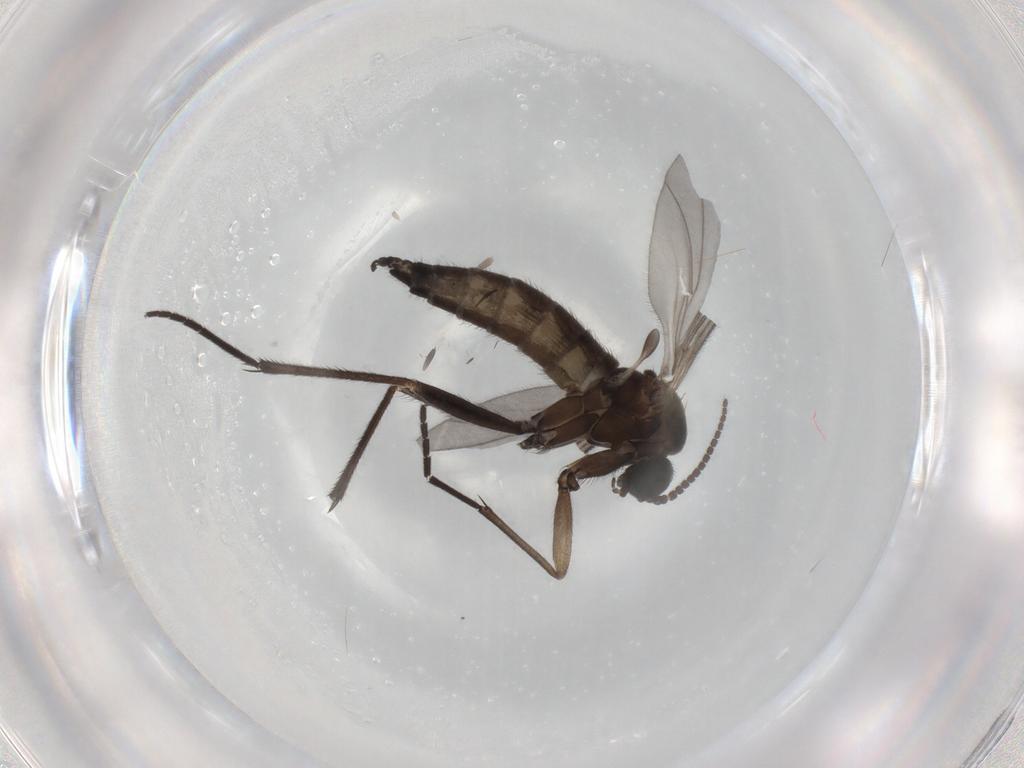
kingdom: Animalia
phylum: Arthropoda
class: Insecta
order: Diptera
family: Sciaridae
